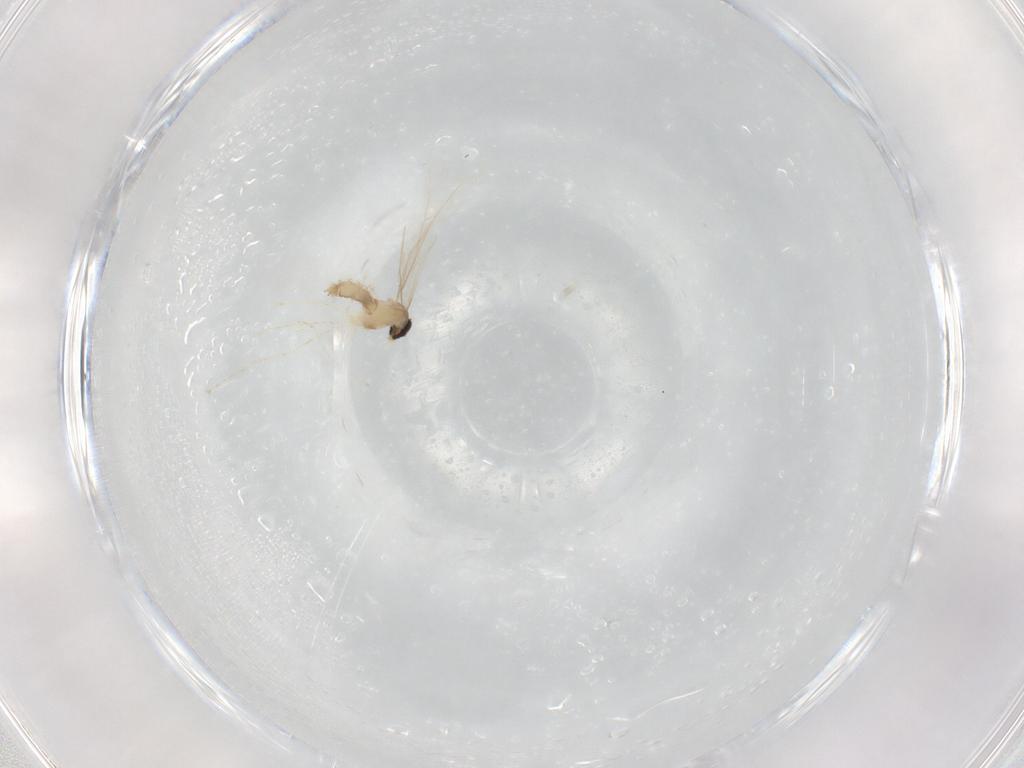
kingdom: Animalia
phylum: Arthropoda
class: Insecta
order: Diptera
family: Cecidomyiidae
